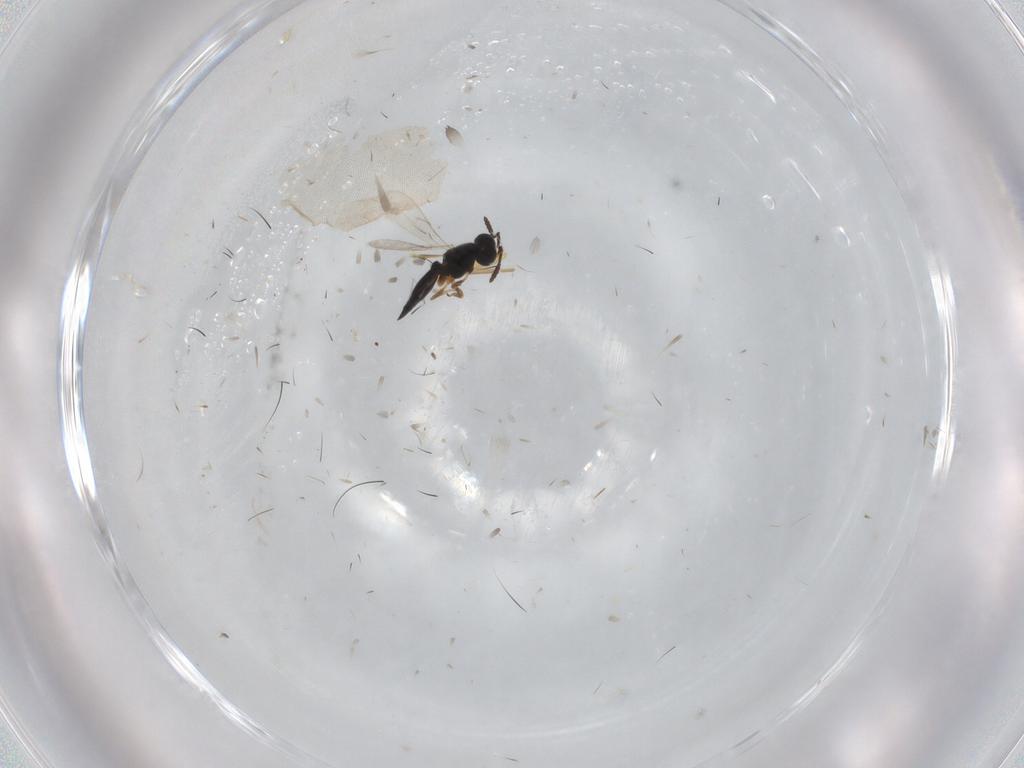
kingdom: Animalia
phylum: Arthropoda
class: Insecta
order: Hymenoptera
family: Scelionidae
